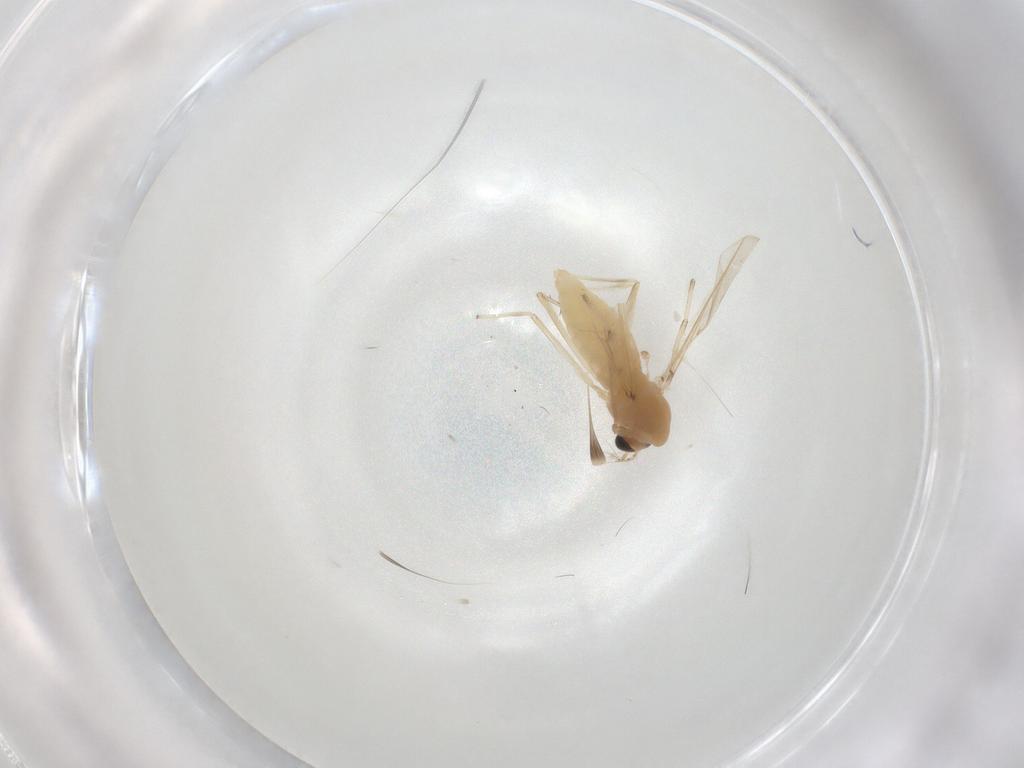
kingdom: Animalia
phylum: Arthropoda
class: Insecta
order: Diptera
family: Chironomidae
